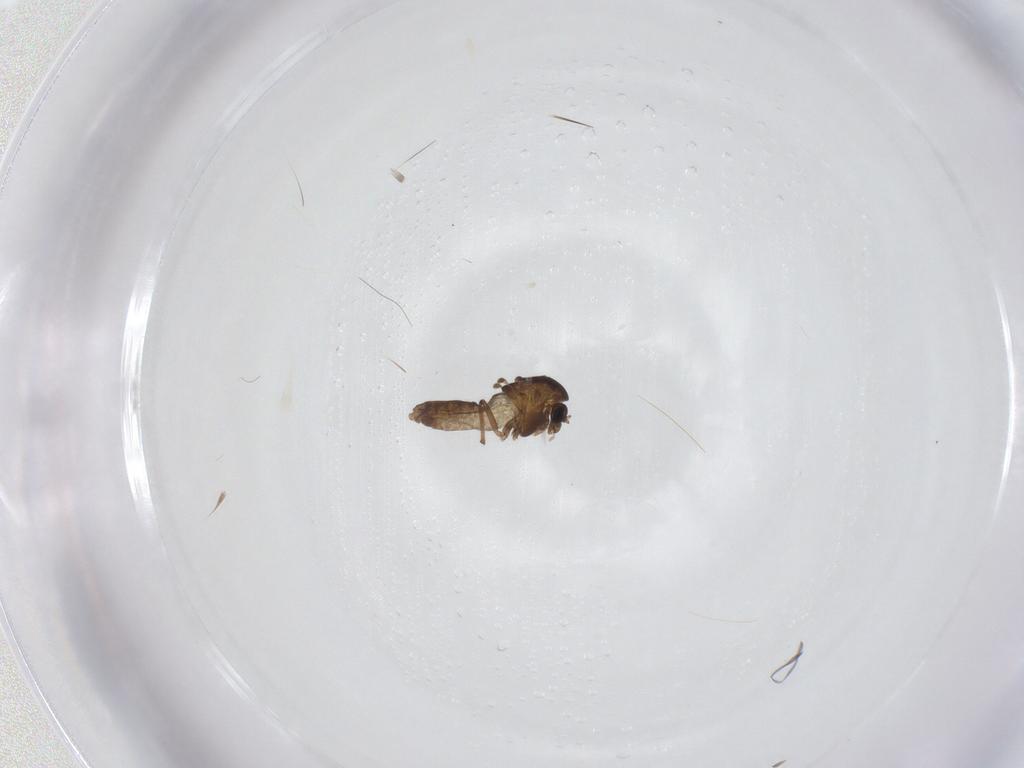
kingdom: Animalia
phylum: Arthropoda
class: Insecta
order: Diptera
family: Chironomidae
